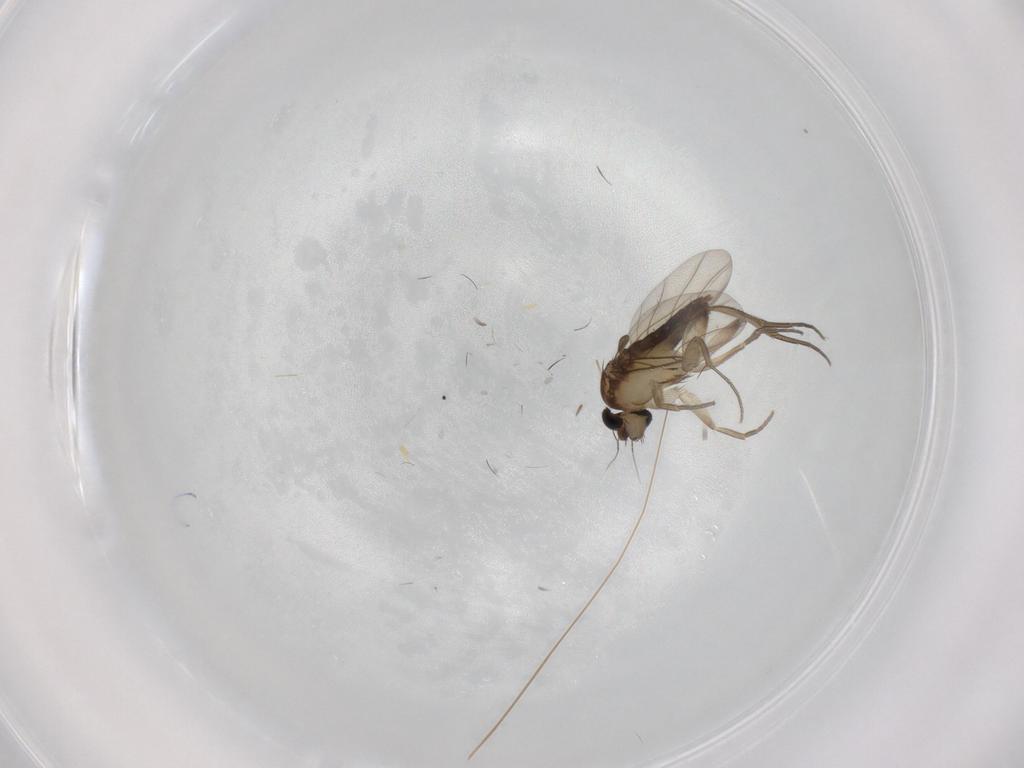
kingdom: Animalia
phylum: Arthropoda
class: Insecta
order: Diptera
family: Phoridae
